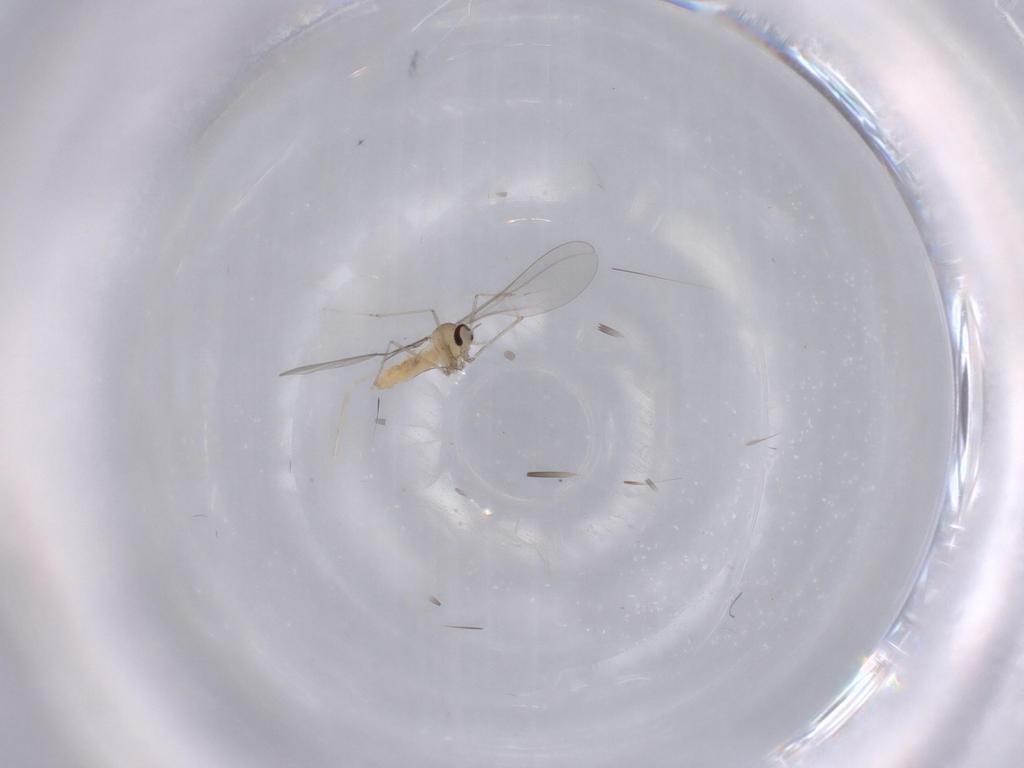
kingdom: Animalia
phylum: Arthropoda
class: Insecta
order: Diptera
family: Cecidomyiidae
